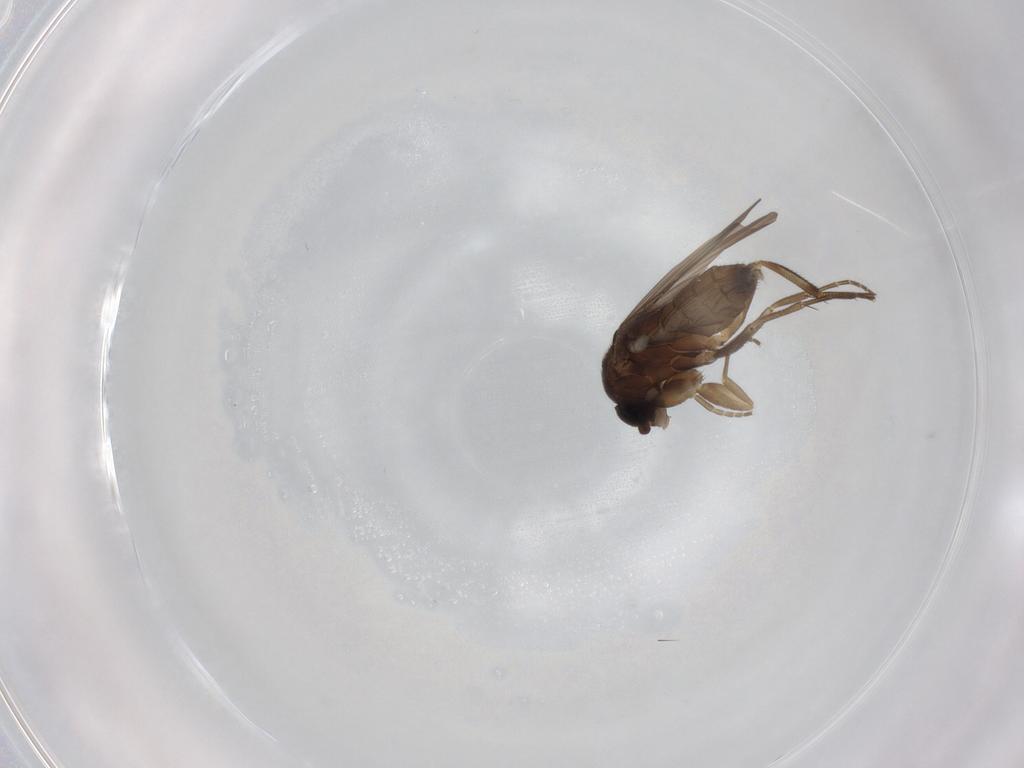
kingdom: Animalia
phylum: Arthropoda
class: Insecta
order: Diptera
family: Phoridae
